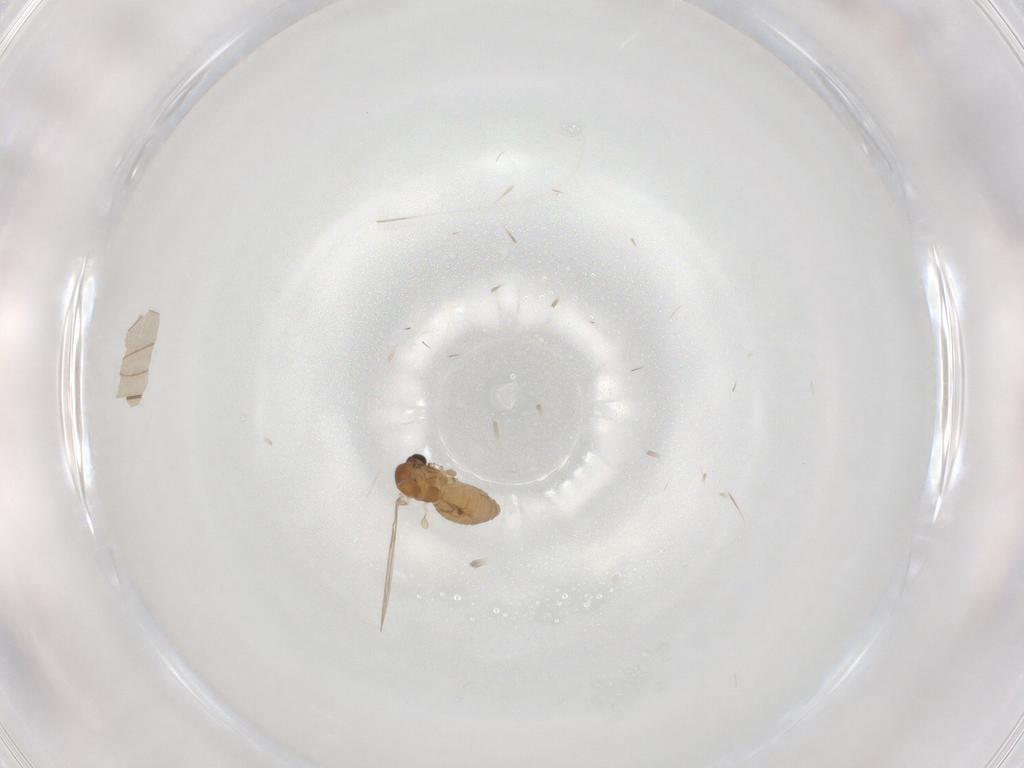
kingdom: Animalia
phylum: Arthropoda
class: Insecta
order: Diptera
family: Psychodidae
